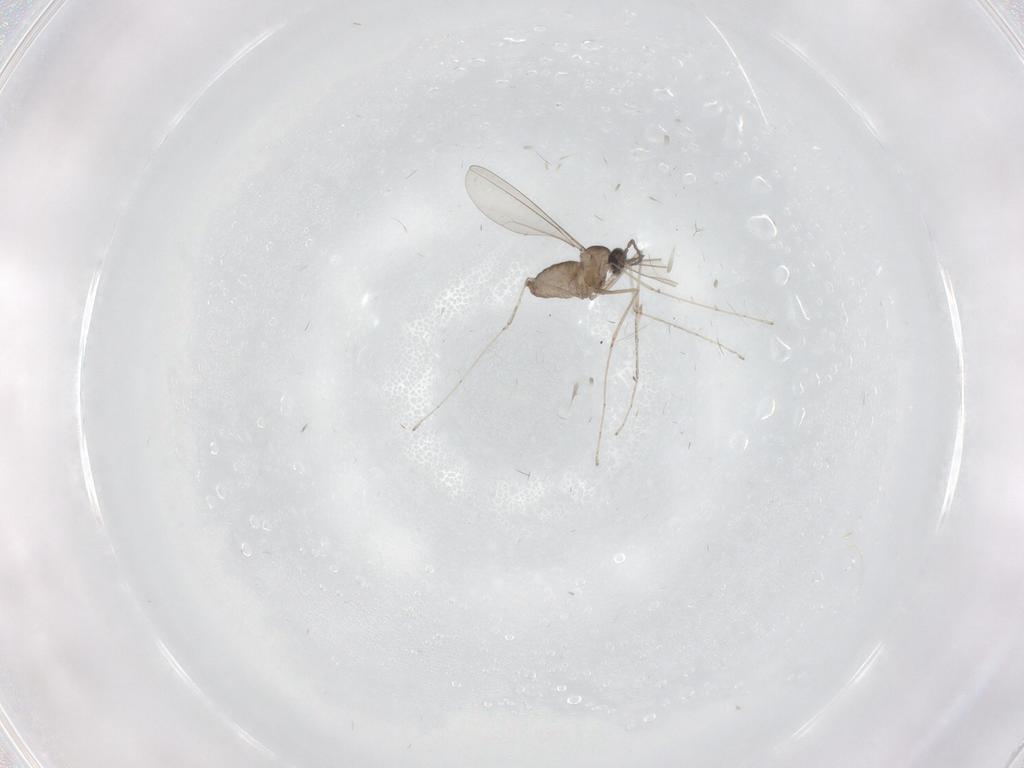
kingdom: Animalia
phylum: Arthropoda
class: Insecta
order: Diptera
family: Cecidomyiidae
